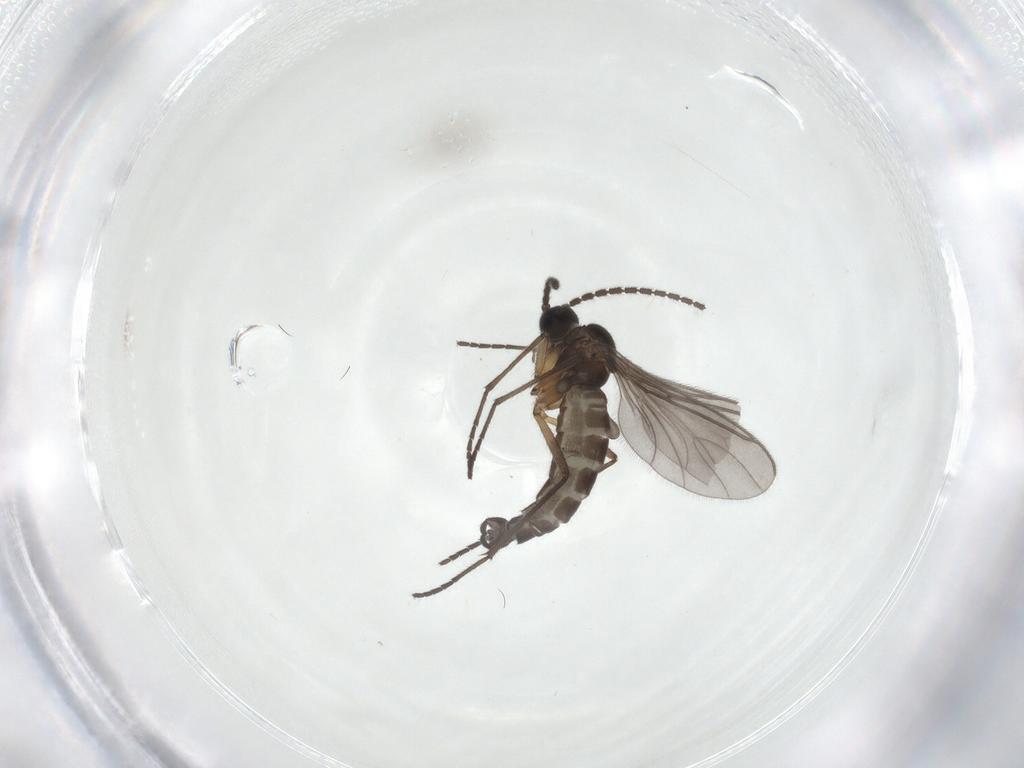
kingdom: Animalia
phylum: Arthropoda
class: Insecta
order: Diptera
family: Sciaridae
